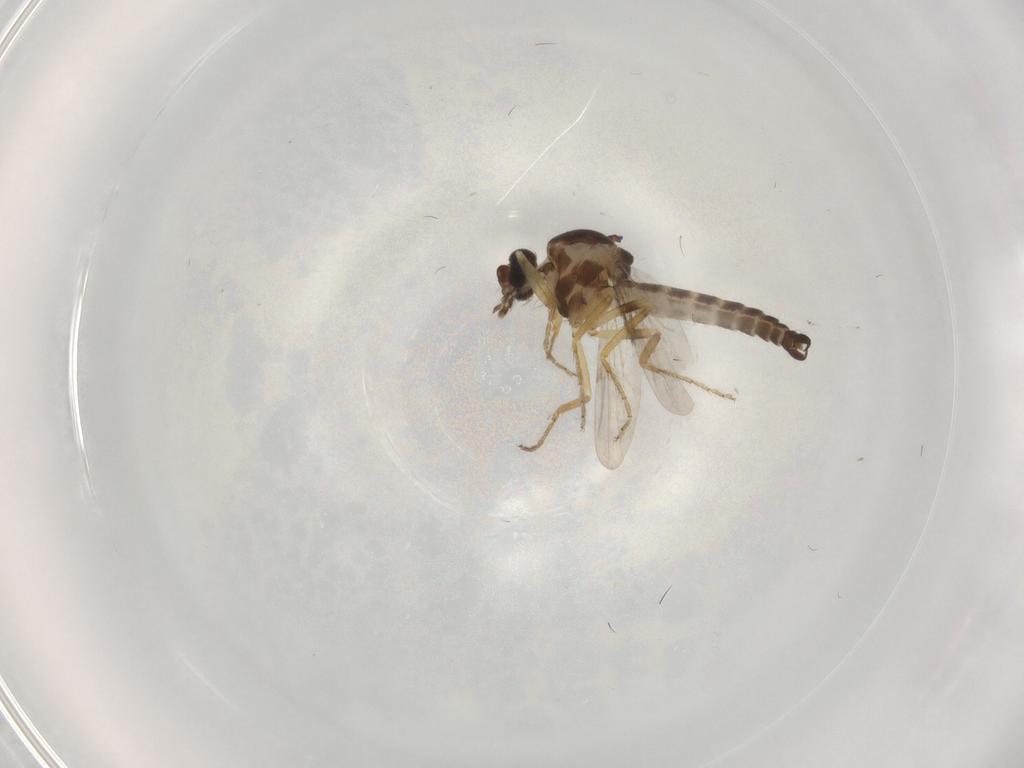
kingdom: Animalia
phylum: Arthropoda
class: Insecta
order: Diptera
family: Ceratopogonidae
